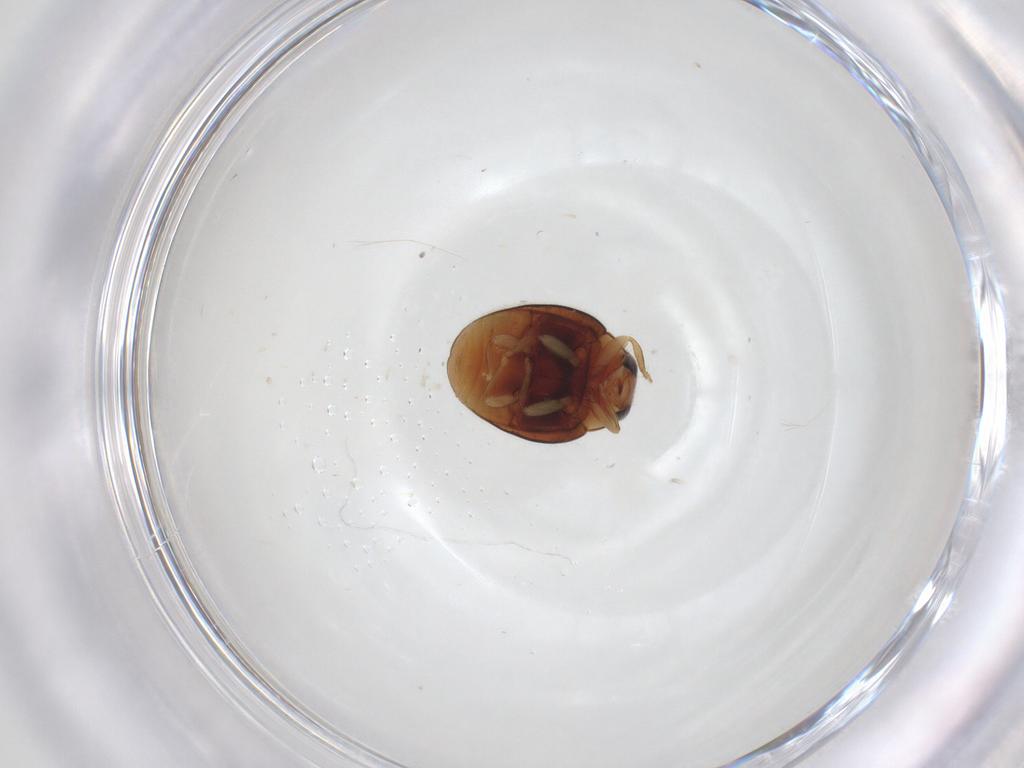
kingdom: Animalia
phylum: Arthropoda
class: Insecta
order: Coleoptera
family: Coccinellidae
